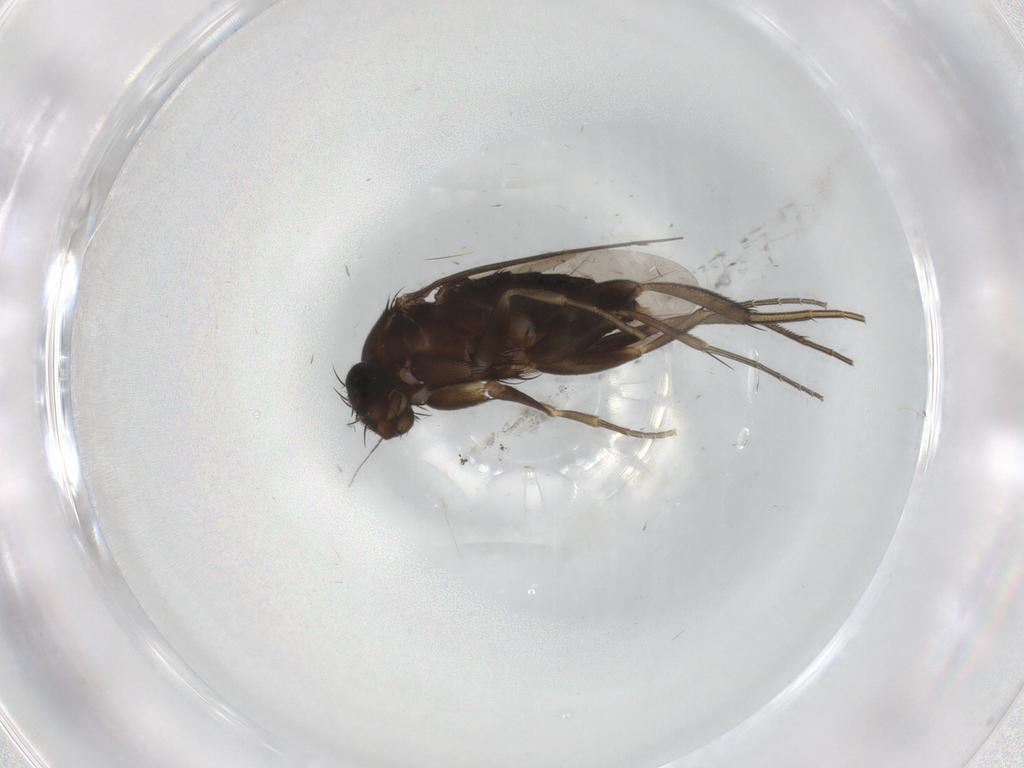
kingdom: Animalia
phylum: Arthropoda
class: Insecta
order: Diptera
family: Phoridae
